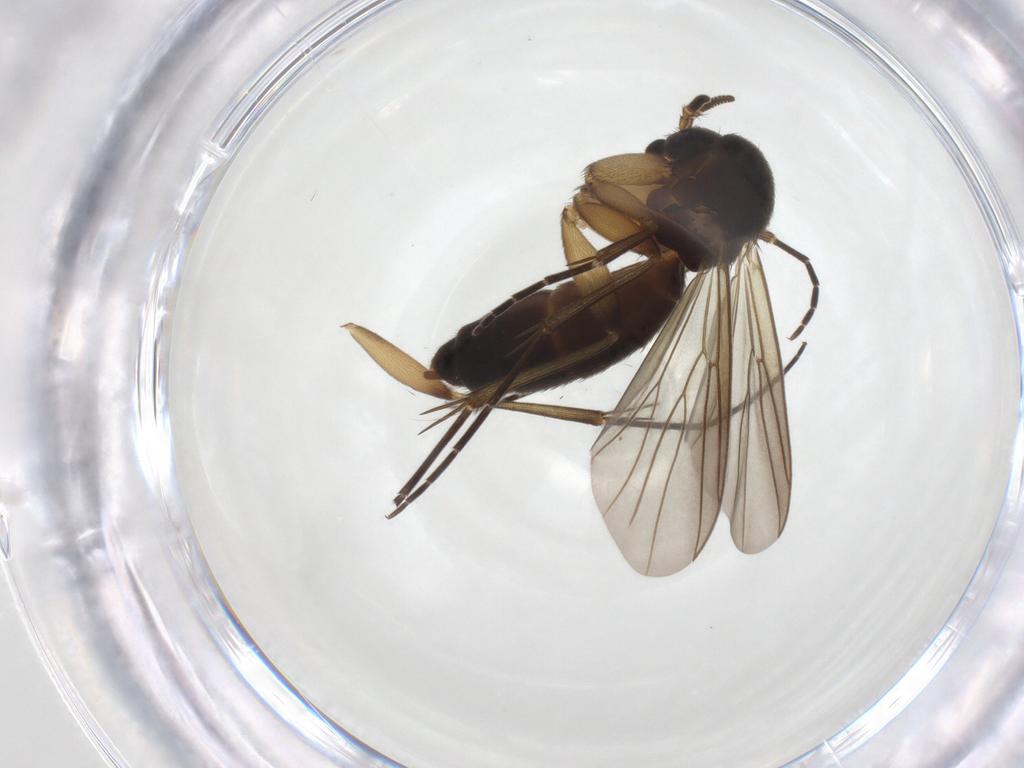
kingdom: Animalia
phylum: Arthropoda
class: Insecta
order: Diptera
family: Mycetophilidae
